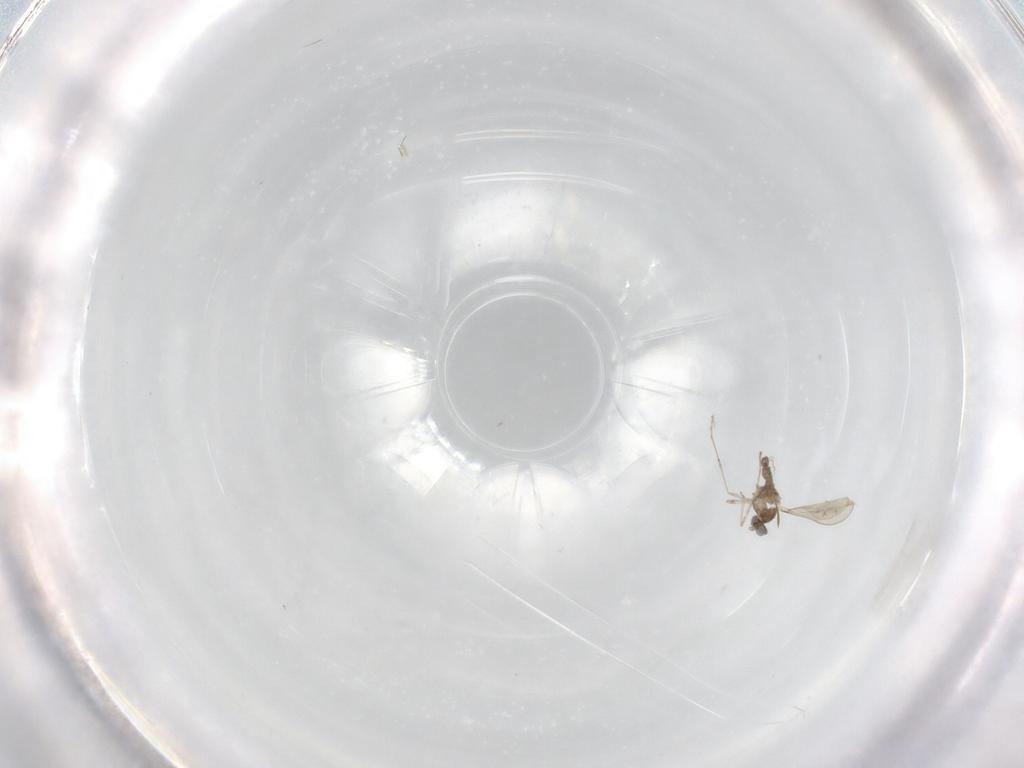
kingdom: Animalia
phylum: Arthropoda
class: Insecta
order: Diptera
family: Cecidomyiidae
